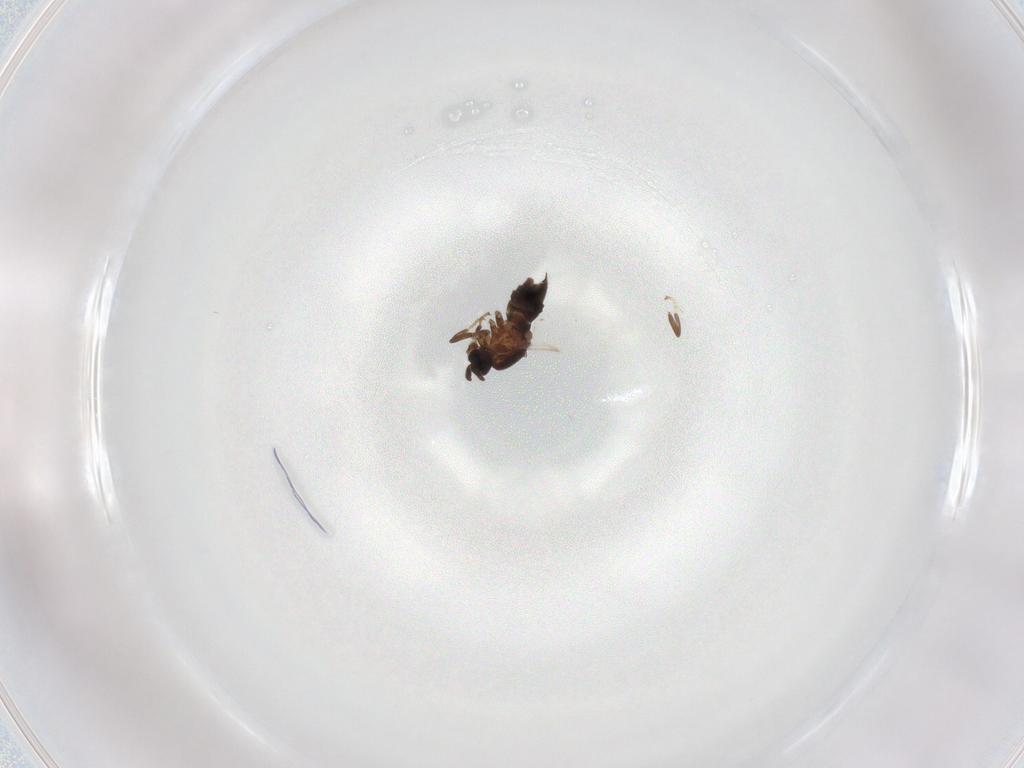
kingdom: Animalia
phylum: Arthropoda
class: Insecta
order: Diptera
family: Scatopsidae
